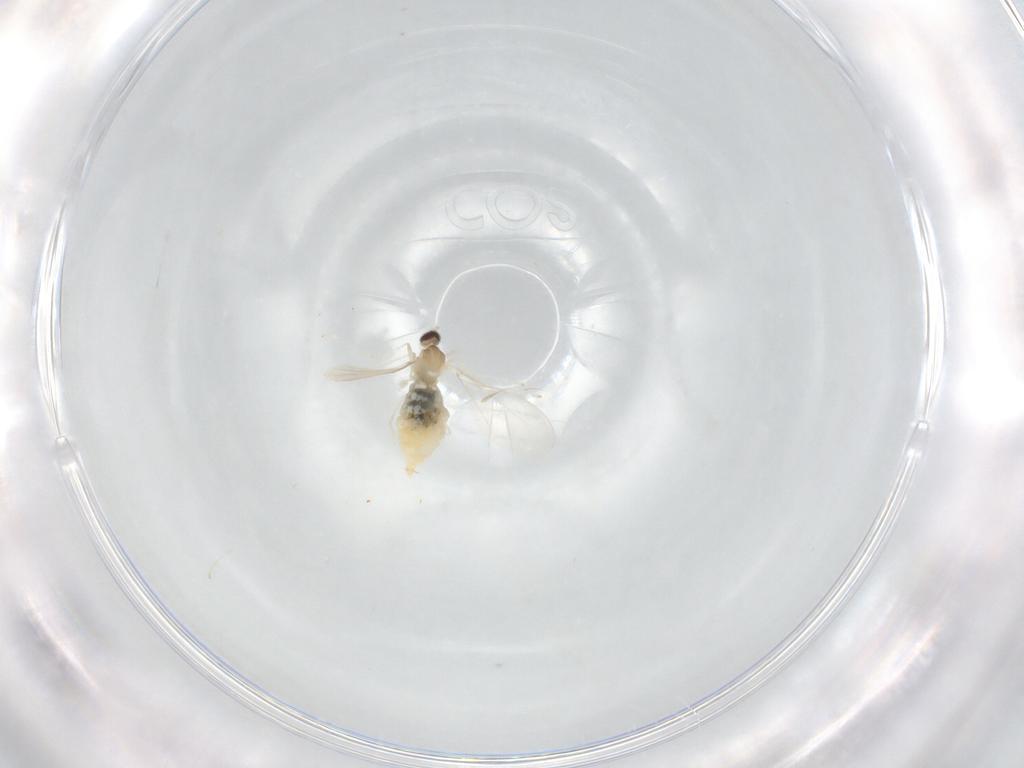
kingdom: Animalia
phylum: Arthropoda
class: Insecta
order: Diptera
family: Cecidomyiidae
